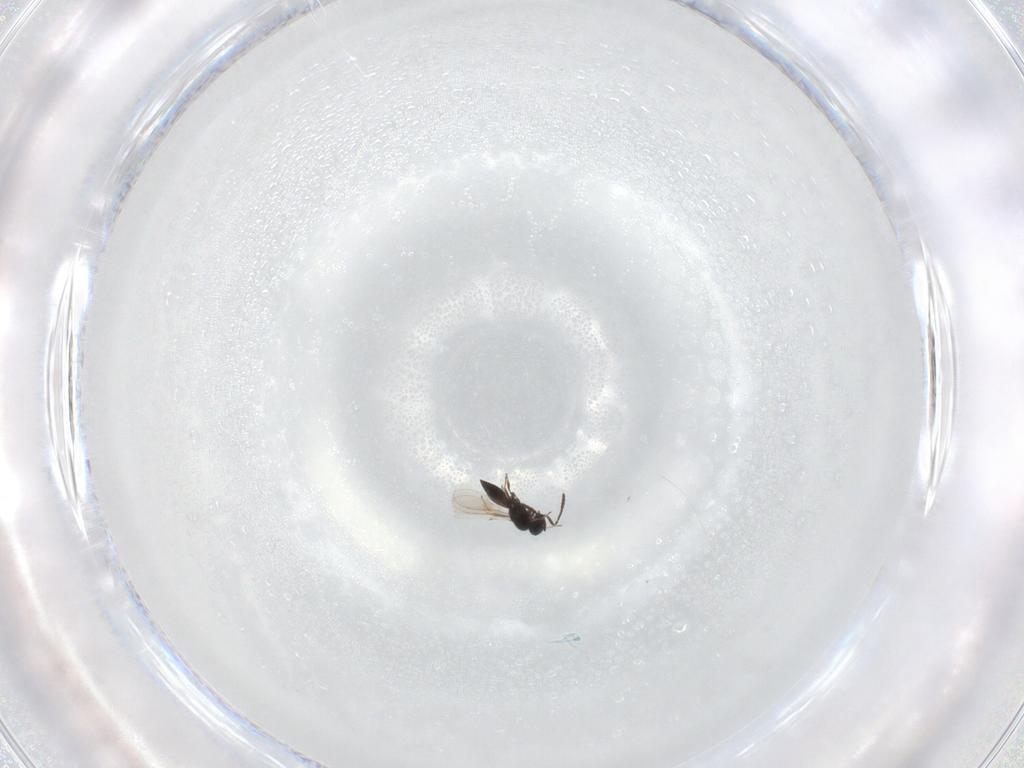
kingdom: Animalia
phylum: Arthropoda
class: Insecta
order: Hymenoptera
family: Scelionidae
